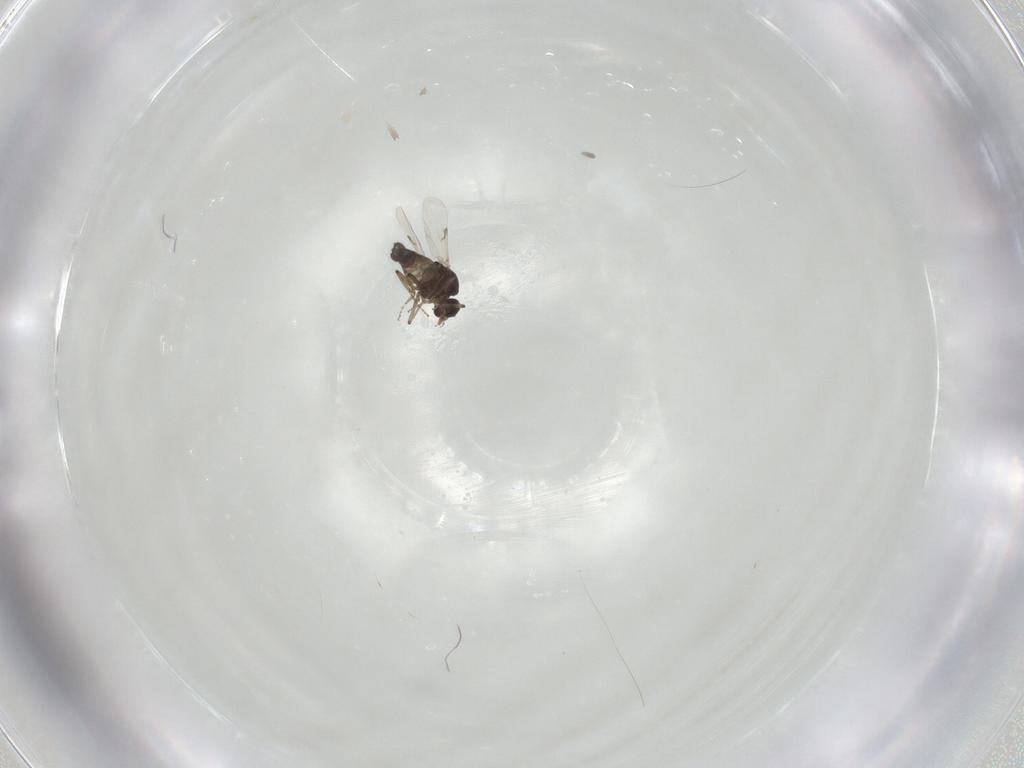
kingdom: Animalia
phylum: Arthropoda
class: Insecta
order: Diptera
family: Ceratopogonidae
